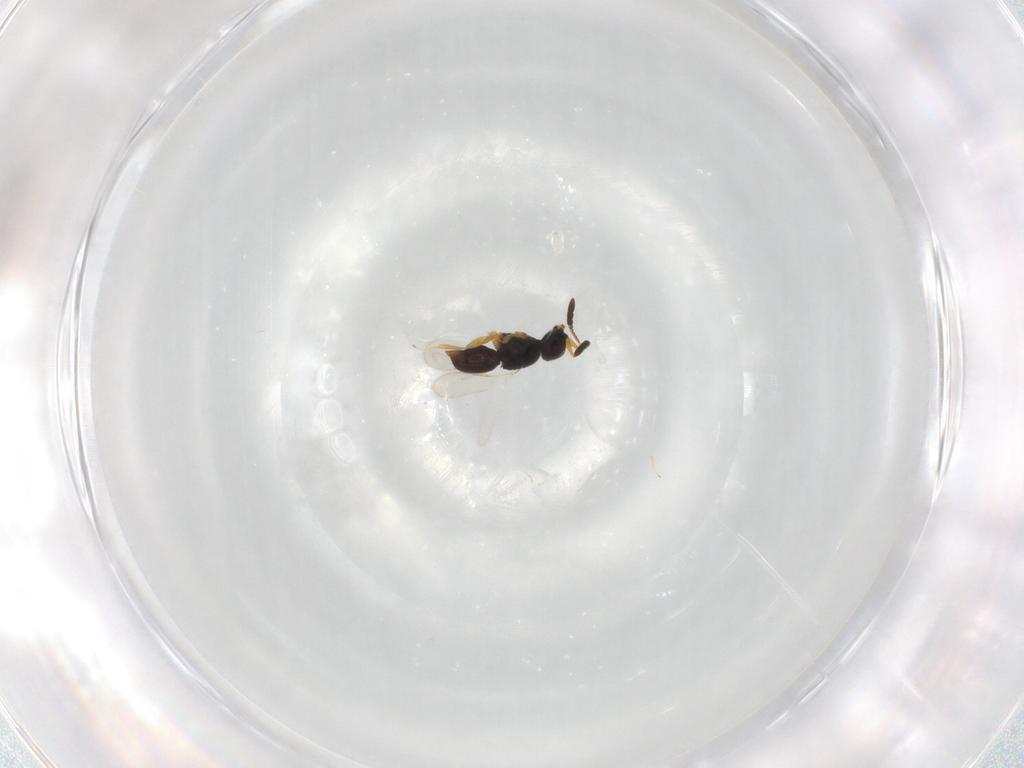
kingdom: Animalia
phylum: Arthropoda
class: Insecta
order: Hymenoptera
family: Ceraphronidae
